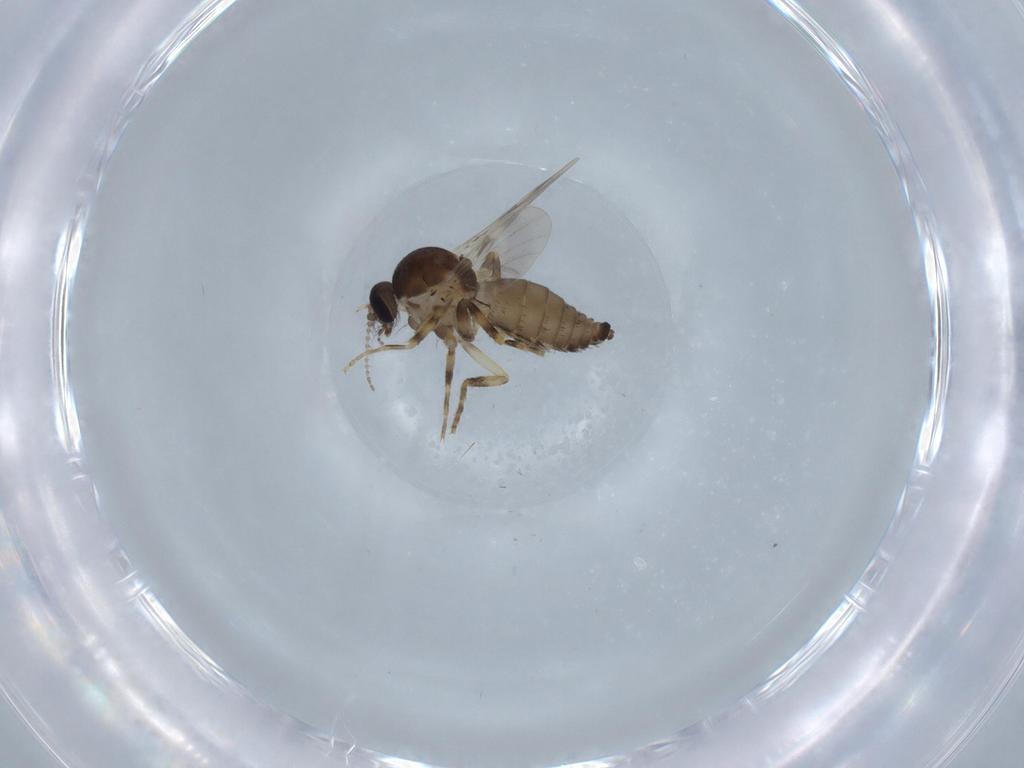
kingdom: Animalia
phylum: Arthropoda
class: Insecta
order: Diptera
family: Ceratopogonidae
